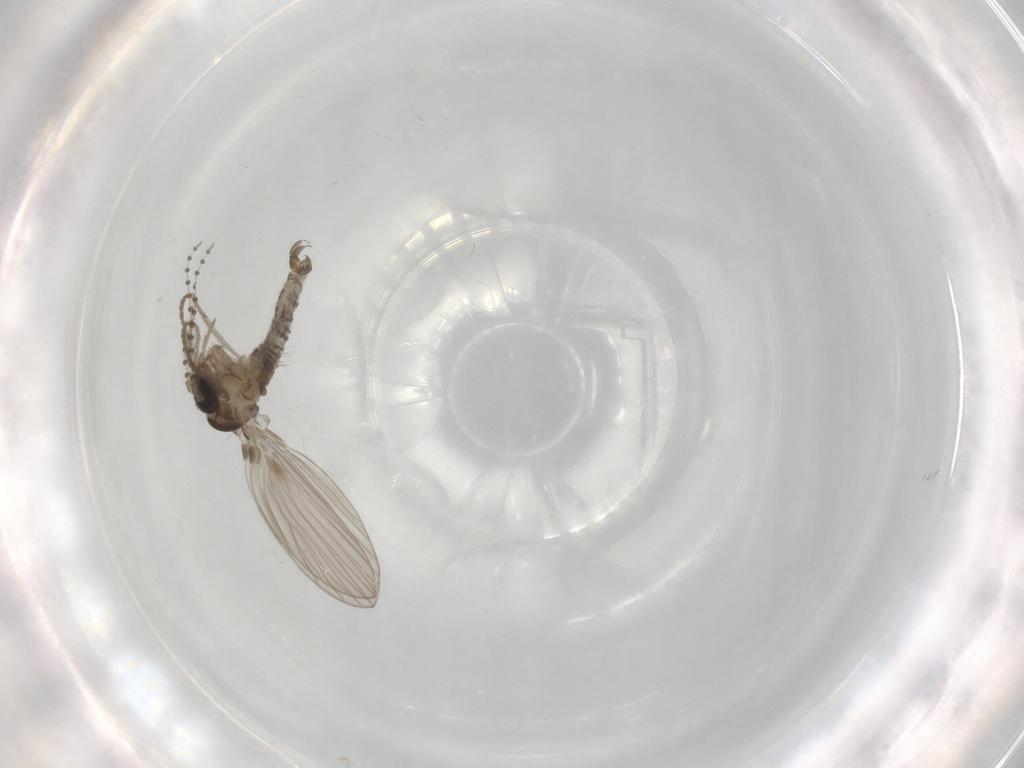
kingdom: Animalia
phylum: Arthropoda
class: Insecta
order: Diptera
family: Psychodidae
